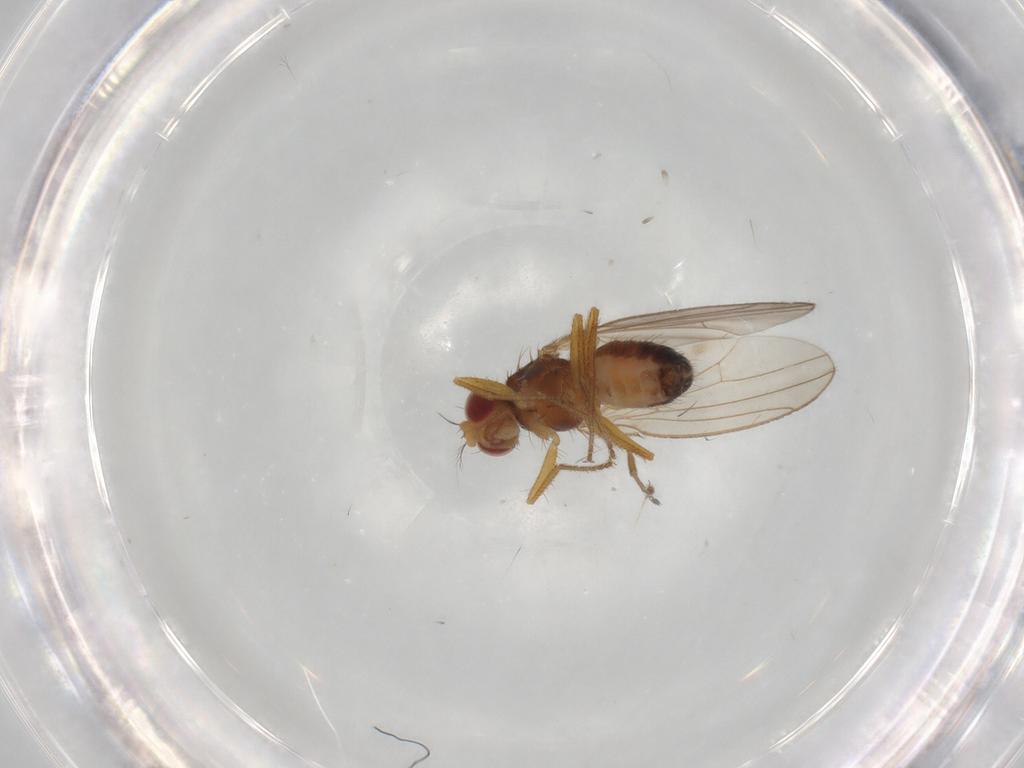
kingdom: Animalia
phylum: Arthropoda
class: Insecta
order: Diptera
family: Drosophilidae
